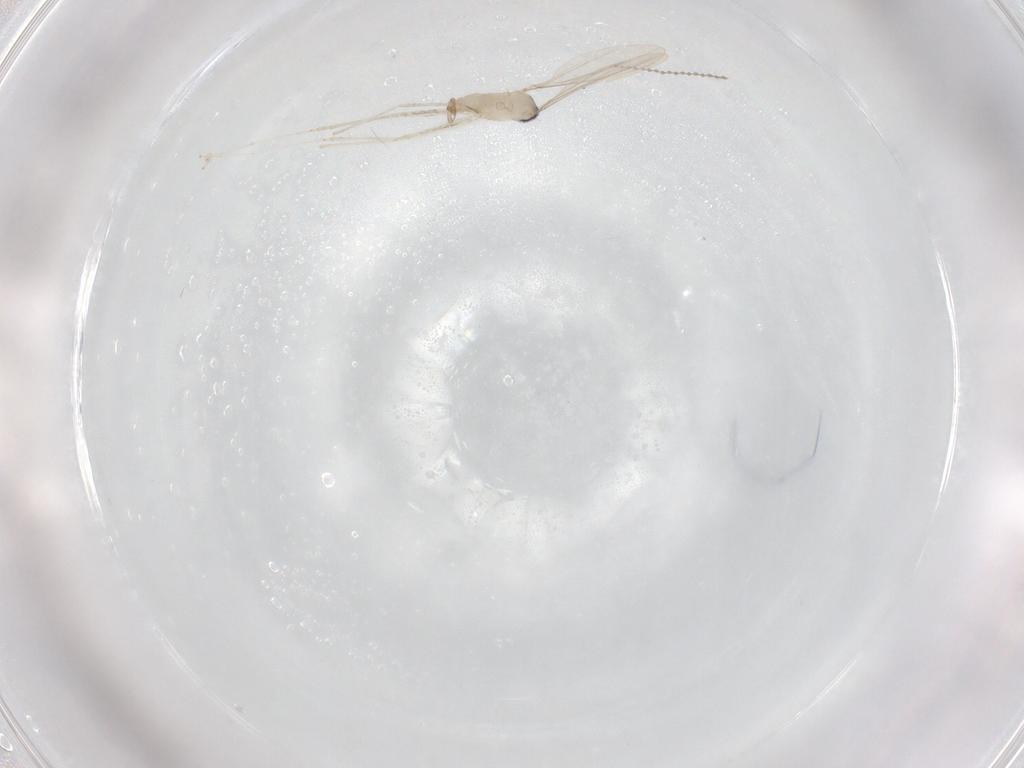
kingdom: Animalia
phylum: Arthropoda
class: Insecta
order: Diptera
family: Cecidomyiidae
